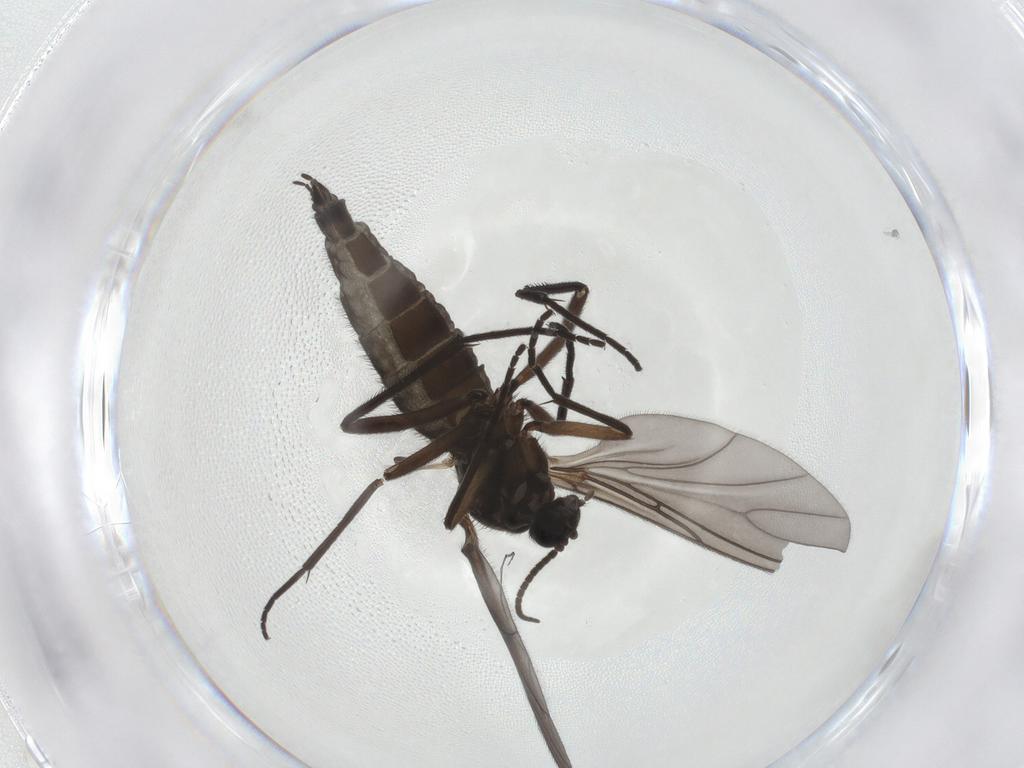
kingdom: Animalia
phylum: Arthropoda
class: Insecta
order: Diptera
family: Sciaridae
